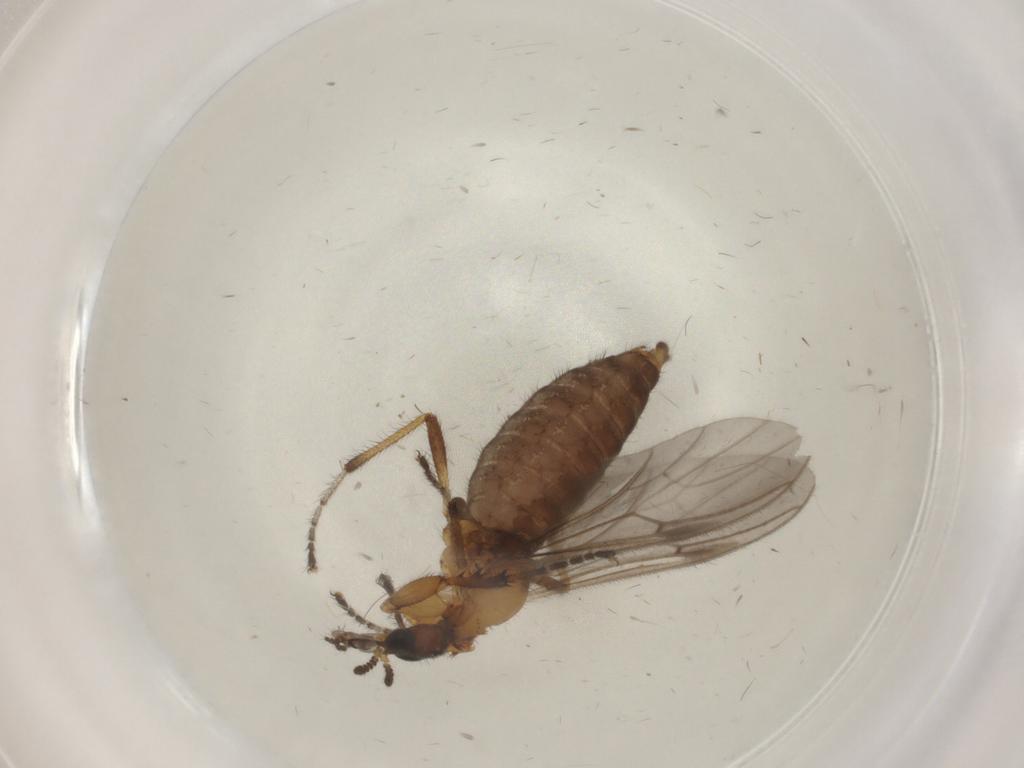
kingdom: Animalia
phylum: Arthropoda
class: Insecta
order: Diptera
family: Bibionidae
